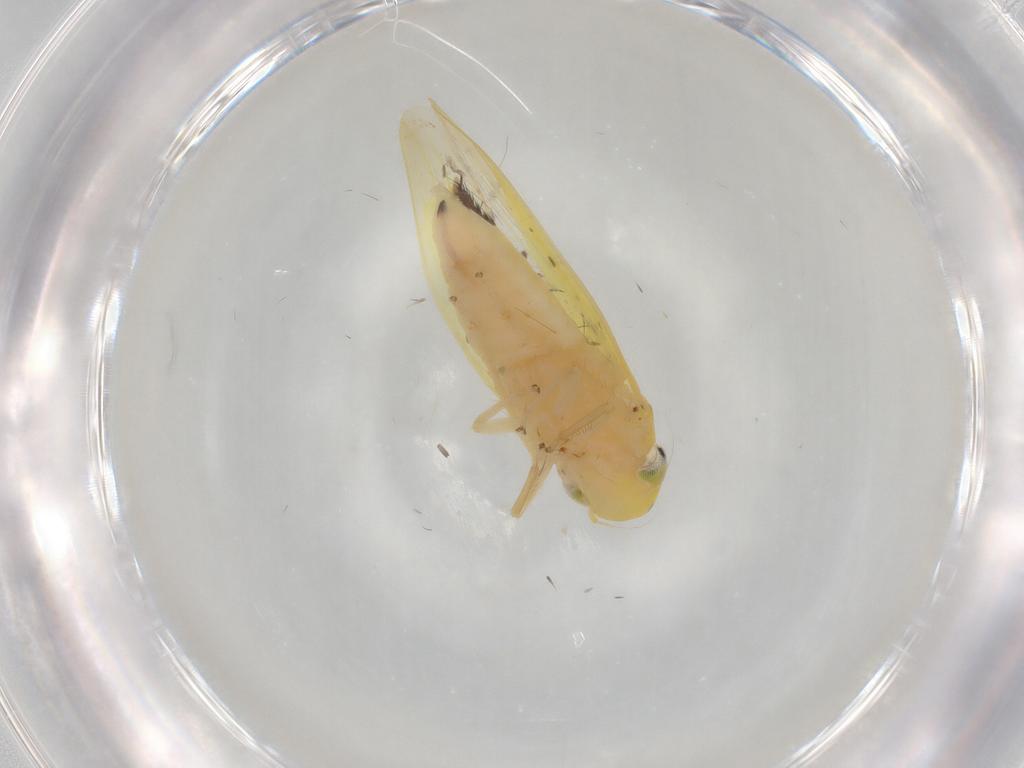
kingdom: Animalia
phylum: Arthropoda
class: Insecta
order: Hemiptera
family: Cicadellidae
